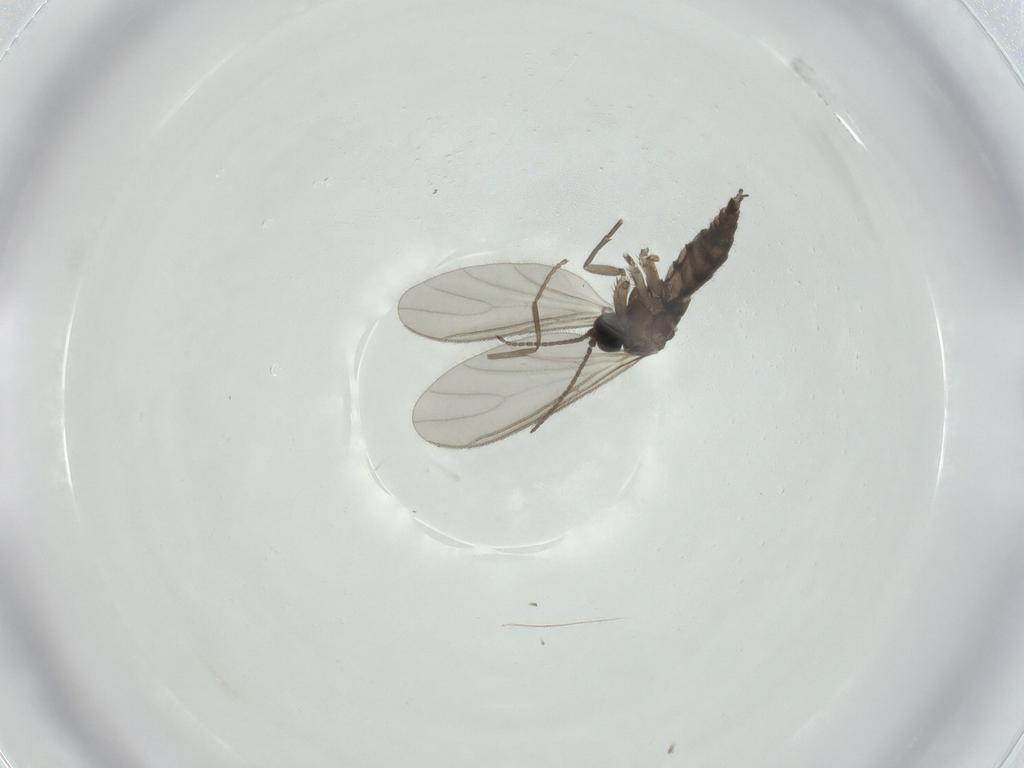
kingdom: Animalia
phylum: Arthropoda
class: Insecta
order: Diptera
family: Sciaridae
